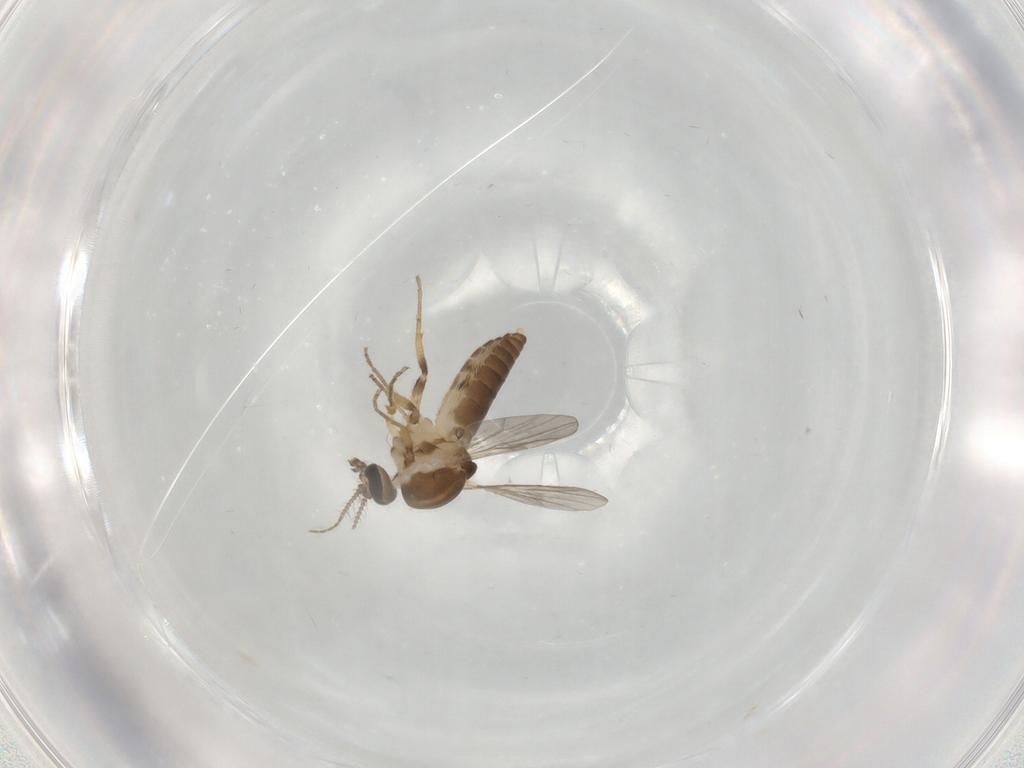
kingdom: Animalia
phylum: Arthropoda
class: Insecta
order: Diptera
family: Ceratopogonidae
